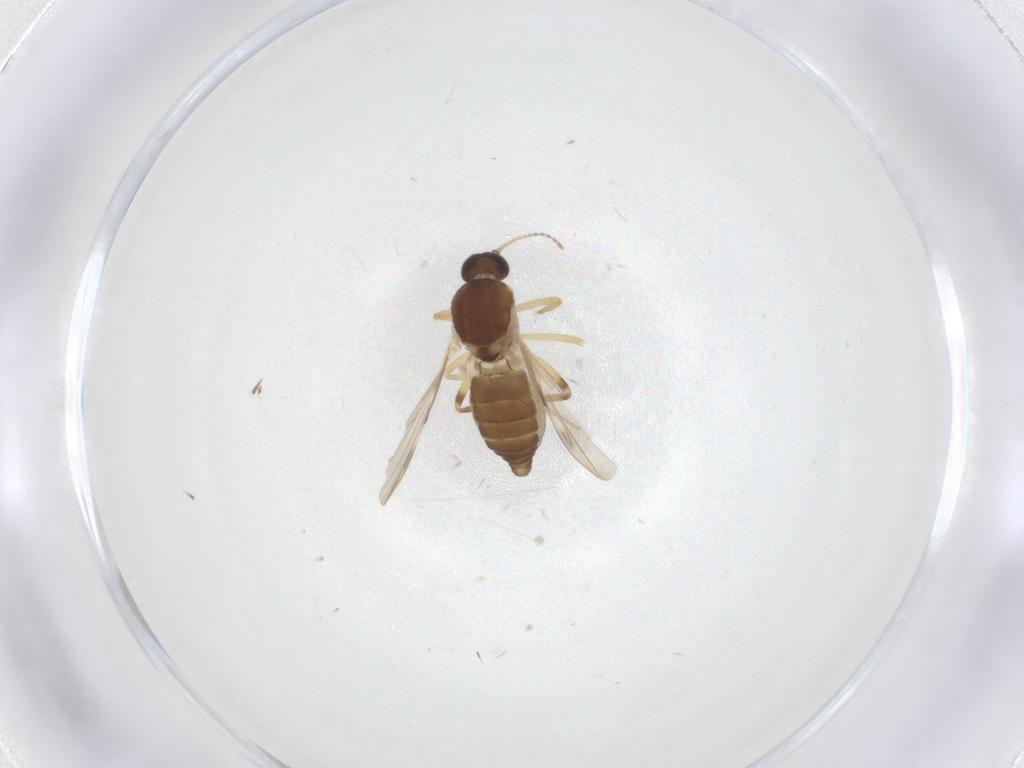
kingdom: Animalia
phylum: Arthropoda
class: Insecta
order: Diptera
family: Ceratopogonidae
